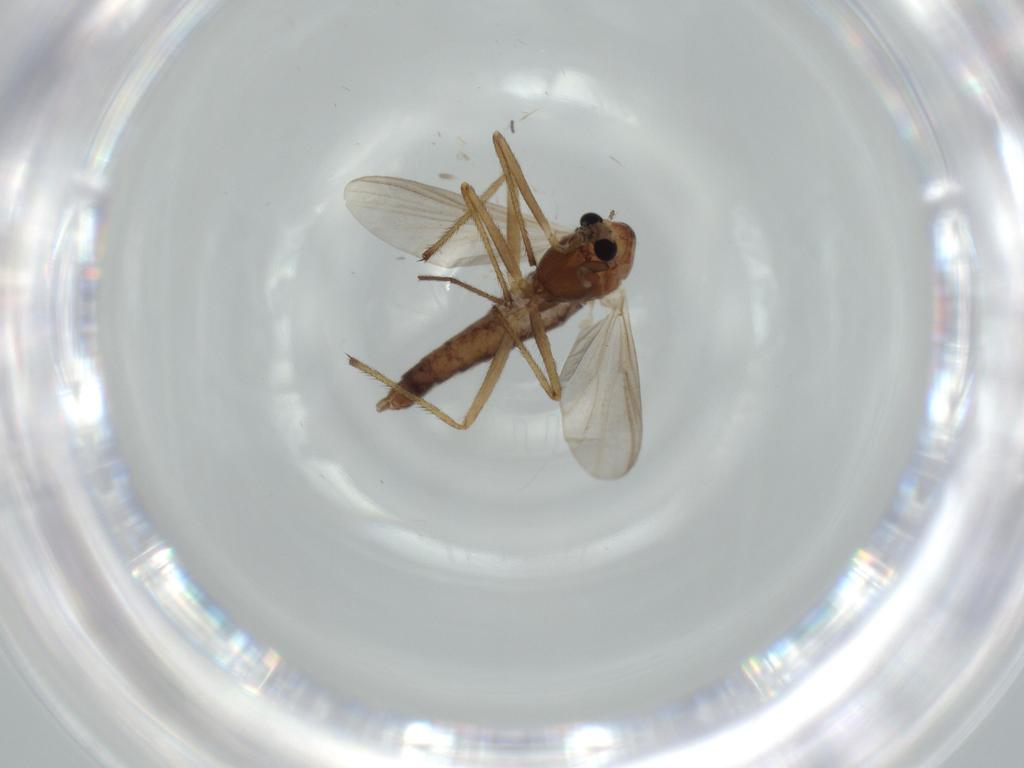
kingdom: Animalia
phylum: Arthropoda
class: Insecta
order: Diptera
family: Chironomidae
